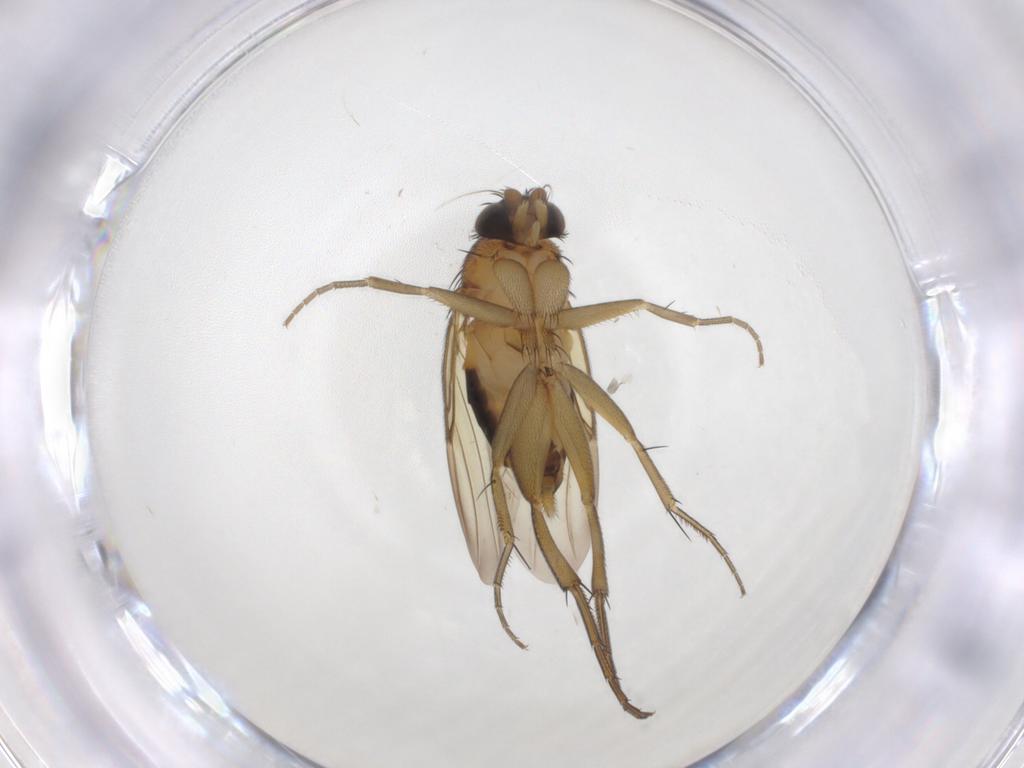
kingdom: Animalia
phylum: Arthropoda
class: Insecta
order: Diptera
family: Phoridae
